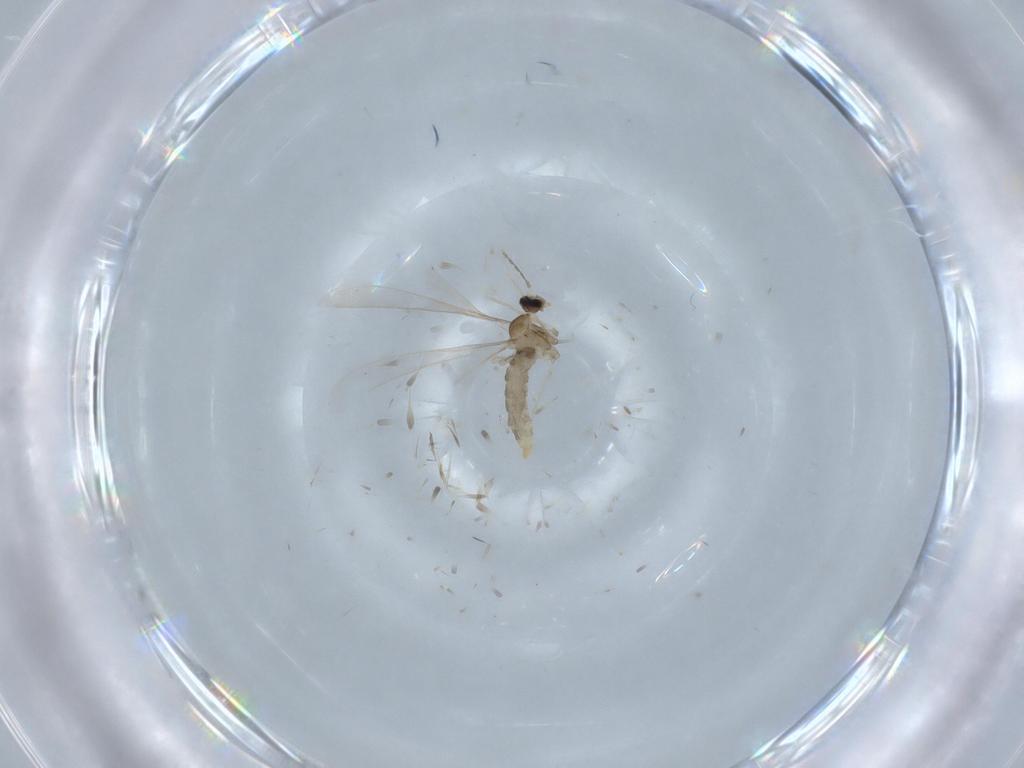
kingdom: Animalia
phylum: Arthropoda
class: Insecta
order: Diptera
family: Cecidomyiidae
